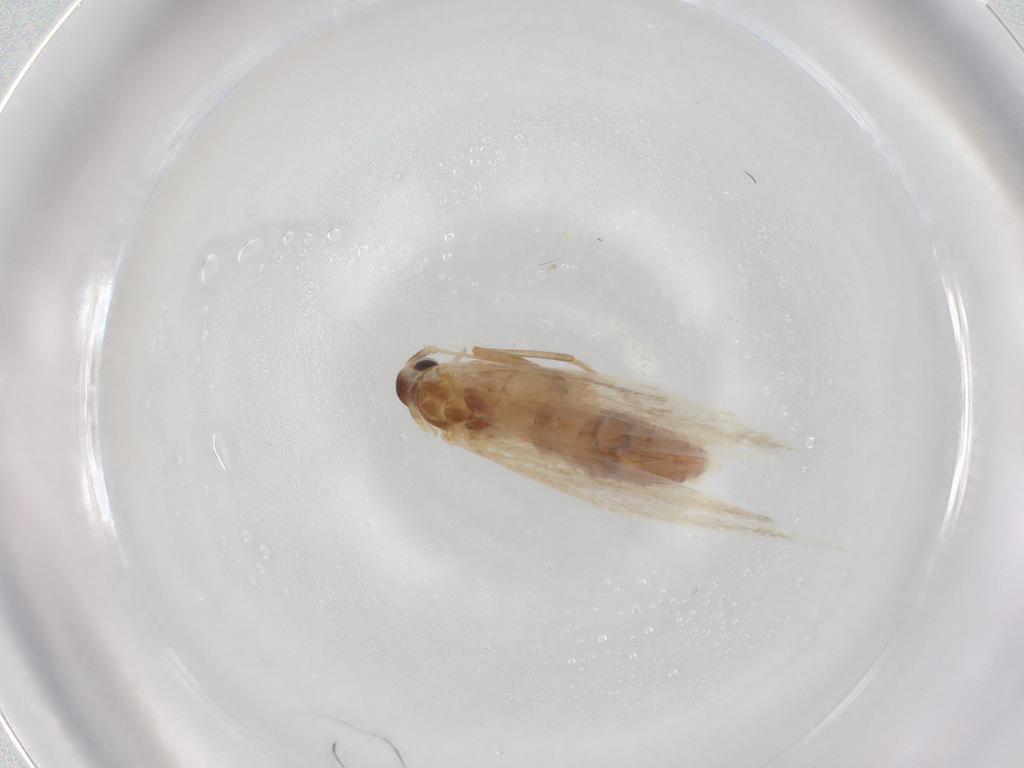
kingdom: Animalia
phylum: Arthropoda
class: Insecta
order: Lepidoptera
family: Coleophoridae
